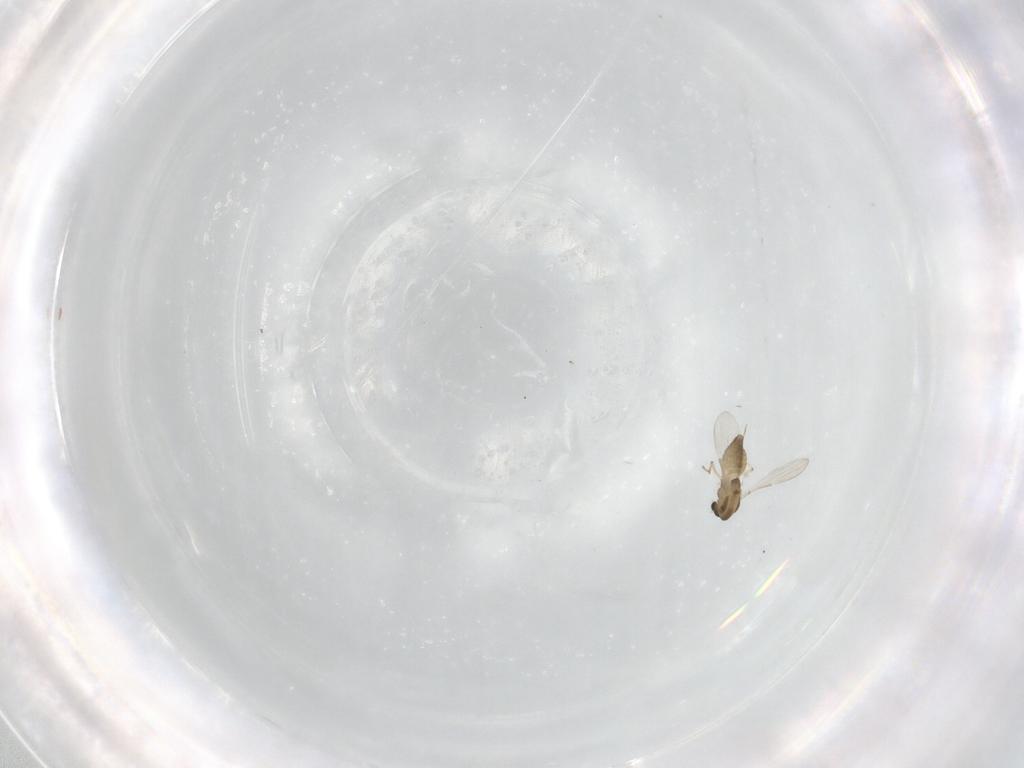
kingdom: Animalia
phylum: Arthropoda
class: Insecta
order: Diptera
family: Chironomidae
